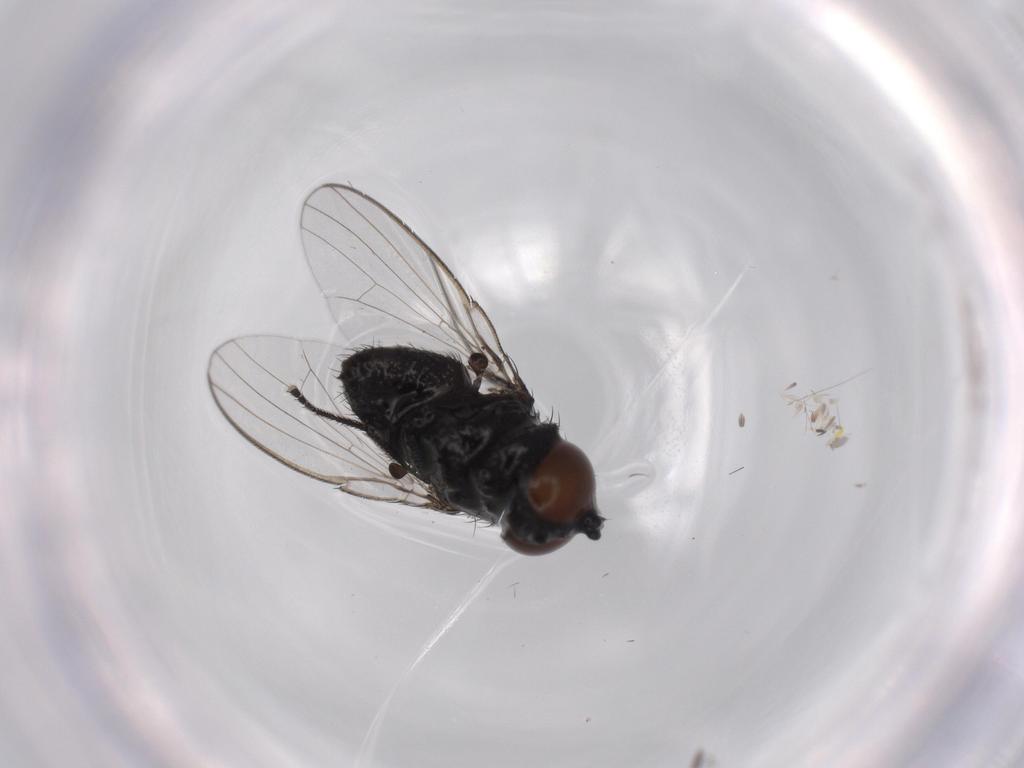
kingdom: Animalia
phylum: Arthropoda
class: Insecta
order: Diptera
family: Milichiidae
